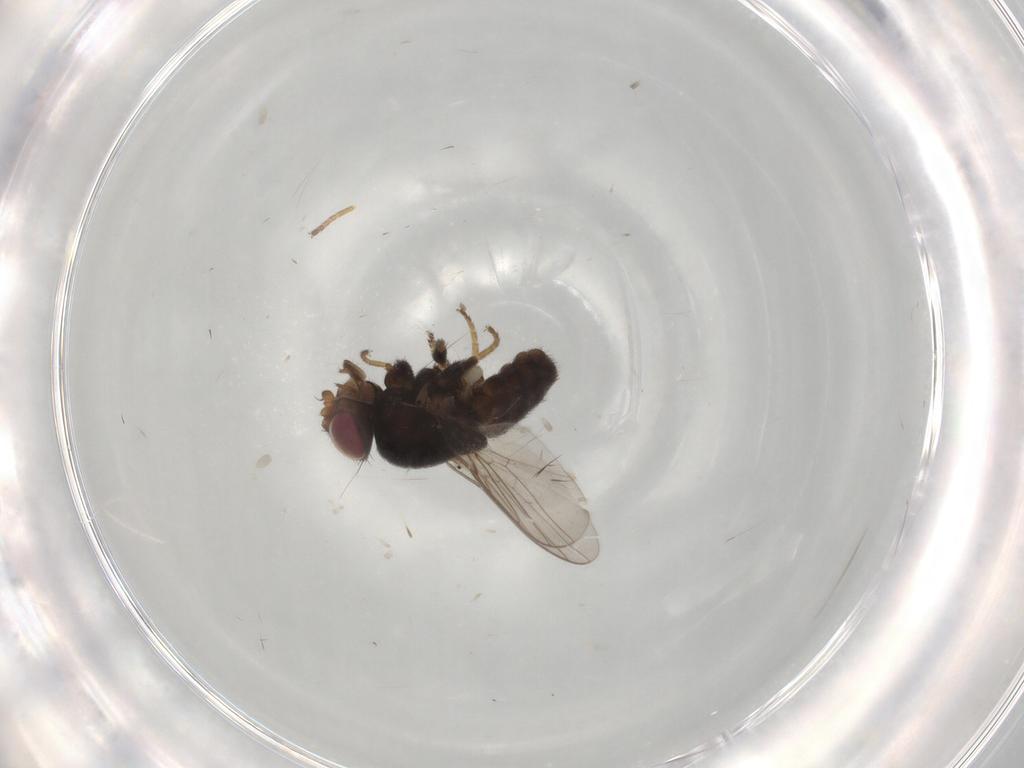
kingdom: Animalia
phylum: Arthropoda
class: Insecta
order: Diptera
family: Chloropidae
